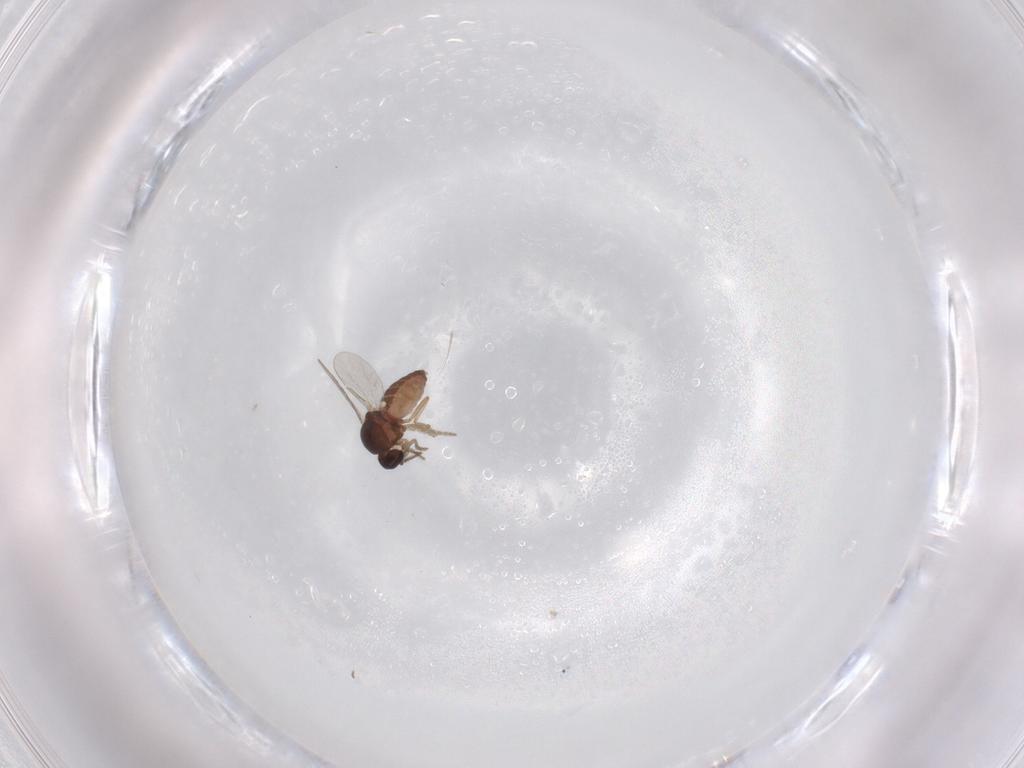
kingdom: Animalia
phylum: Arthropoda
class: Insecta
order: Diptera
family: Ceratopogonidae
